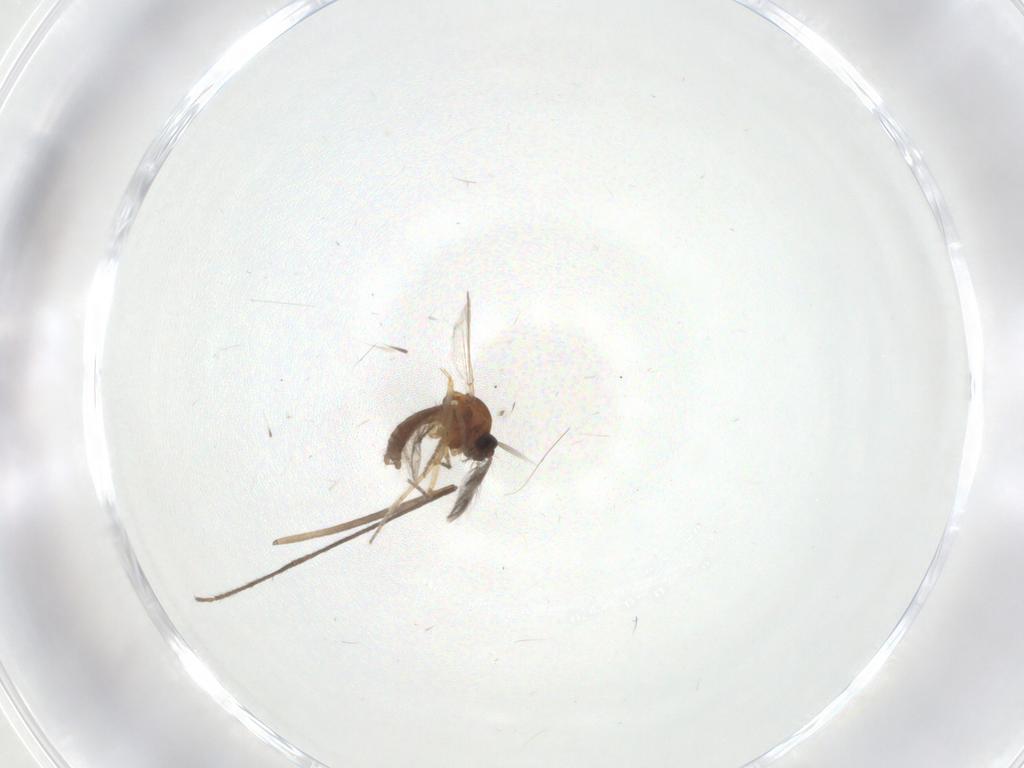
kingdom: Animalia
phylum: Arthropoda
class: Insecta
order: Diptera
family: Ceratopogonidae
